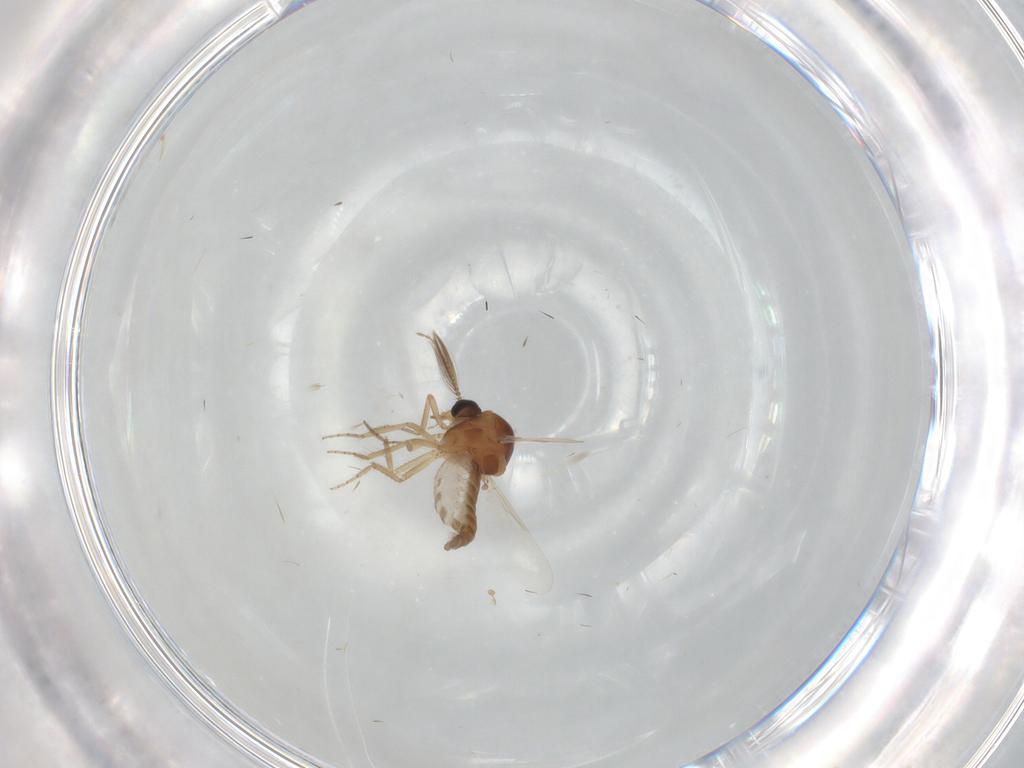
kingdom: Animalia
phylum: Arthropoda
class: Insecta
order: Diptera
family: Ceratopogonidae
